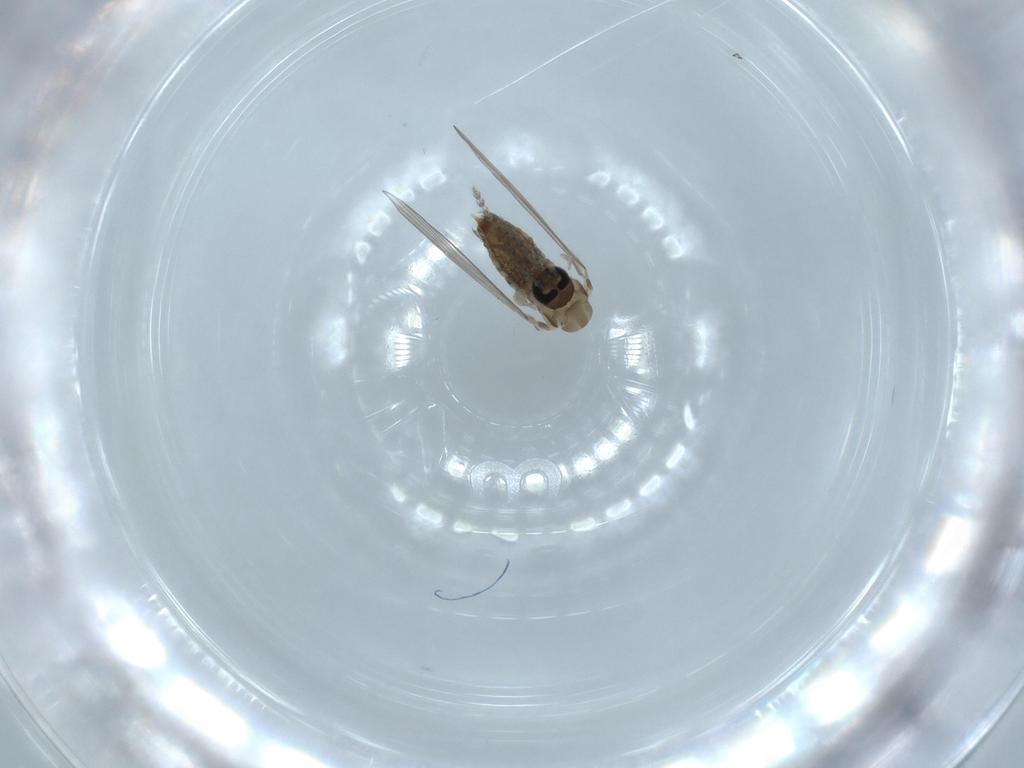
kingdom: Animalia
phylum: Arthropoda
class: Insecta
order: Diptera
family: Psychodidae
